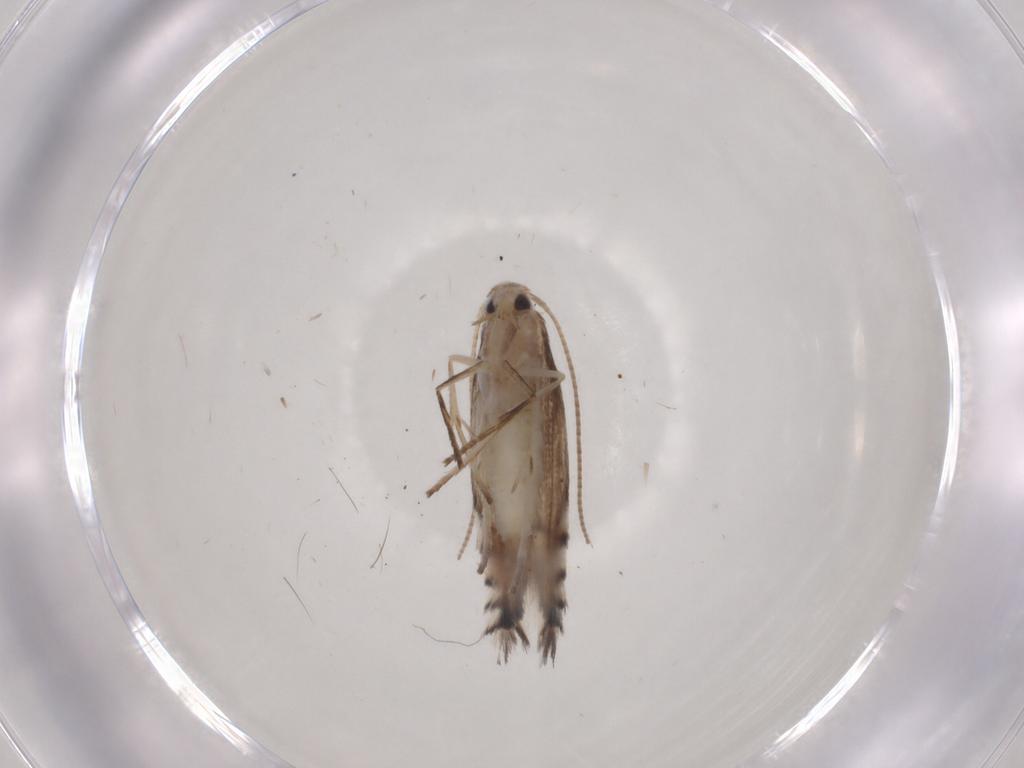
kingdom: Animalia
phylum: Arthropoda
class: Insecta
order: Lepidoptera
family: Gracillariidae
